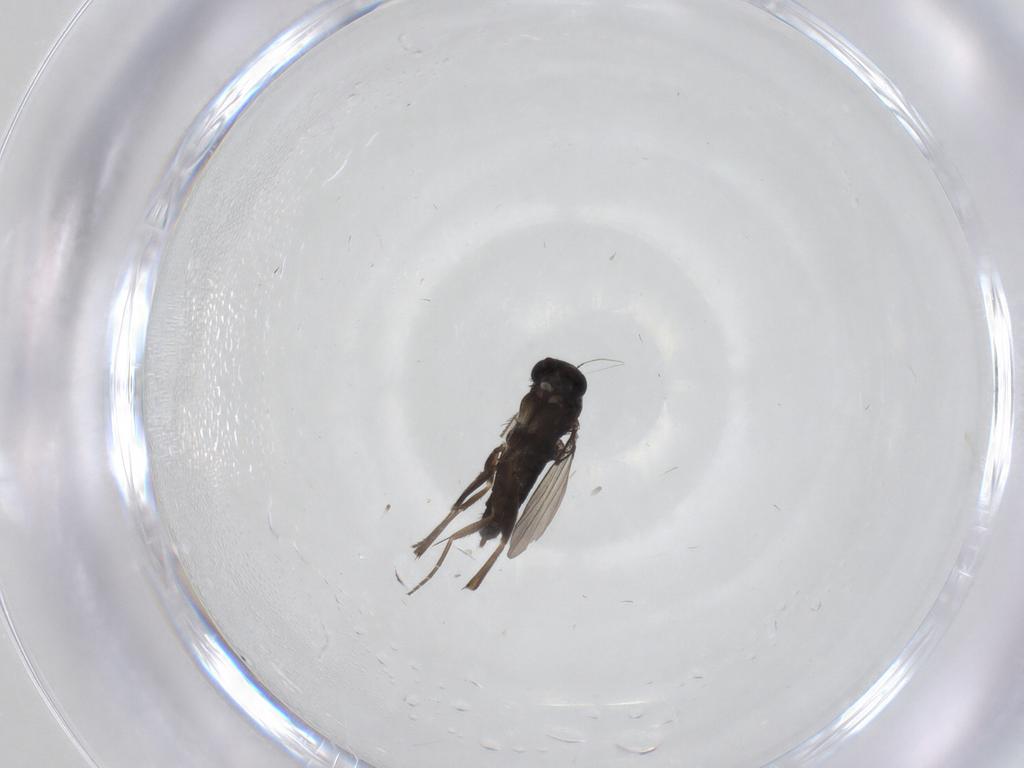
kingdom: Animalia
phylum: Arthropoda
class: Insecta
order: Diptera
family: Phoridae
